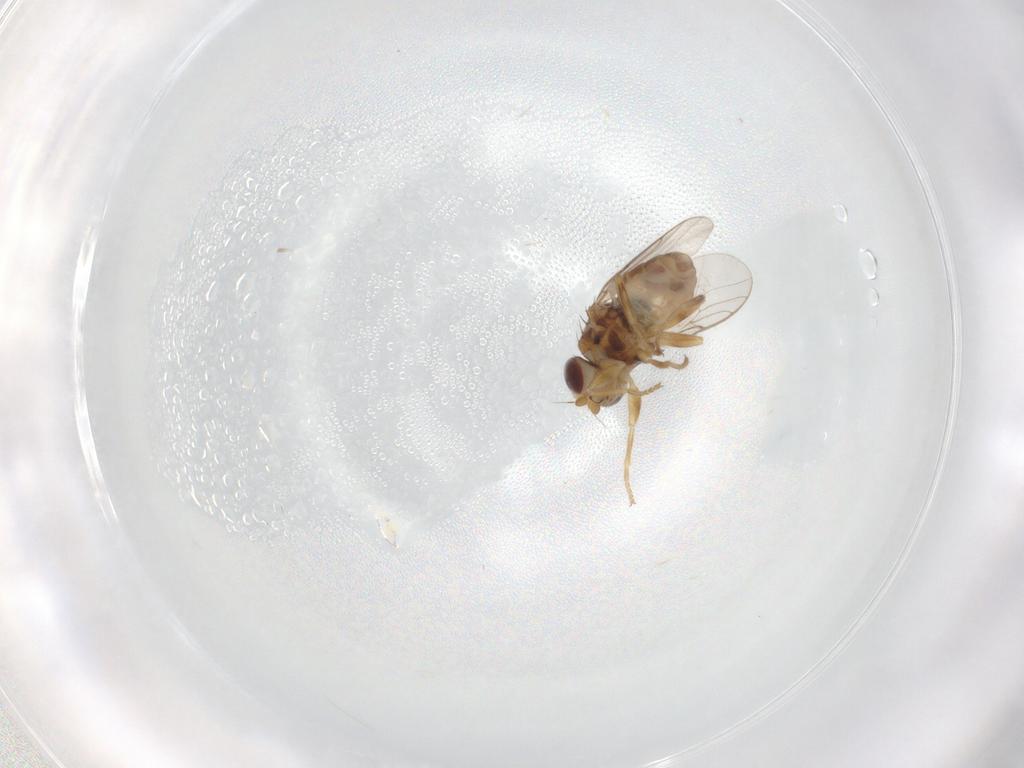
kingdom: Animalia
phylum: Arthropoda
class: Insecta
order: Diptera
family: Chloropidae
